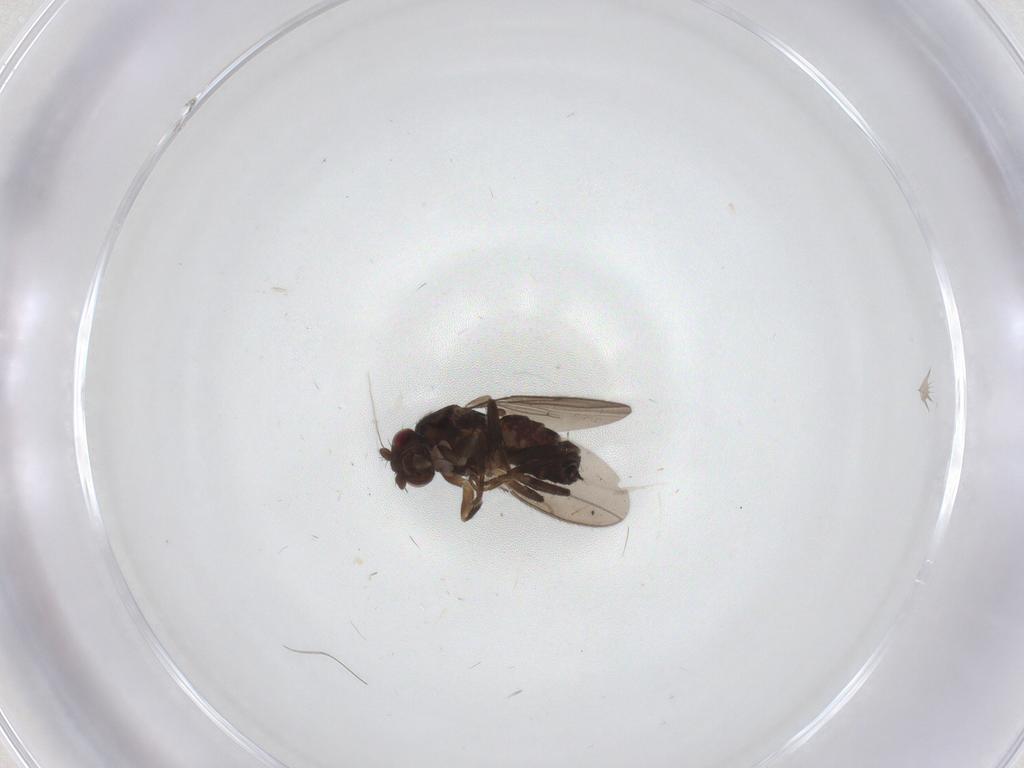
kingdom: Animalia
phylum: Arthropoda
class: Insecta
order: Diptera
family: Sphaeroceridae
